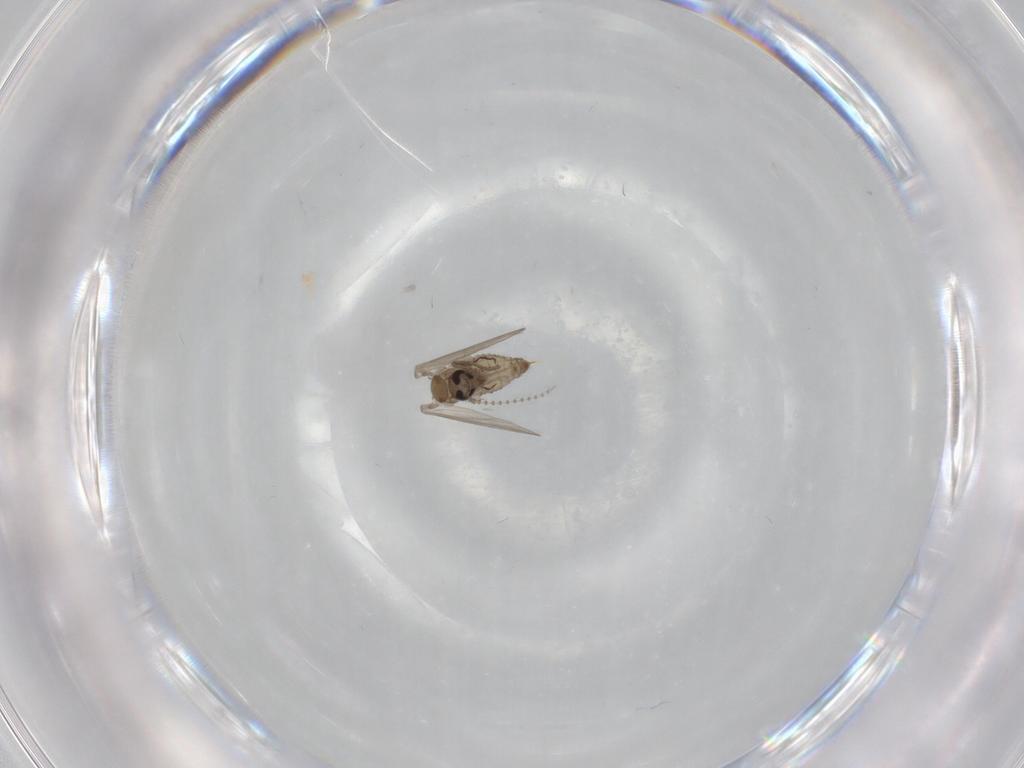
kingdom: Animalia
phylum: Arthropoda
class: Insecta
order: Diptera
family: Psychodidae
